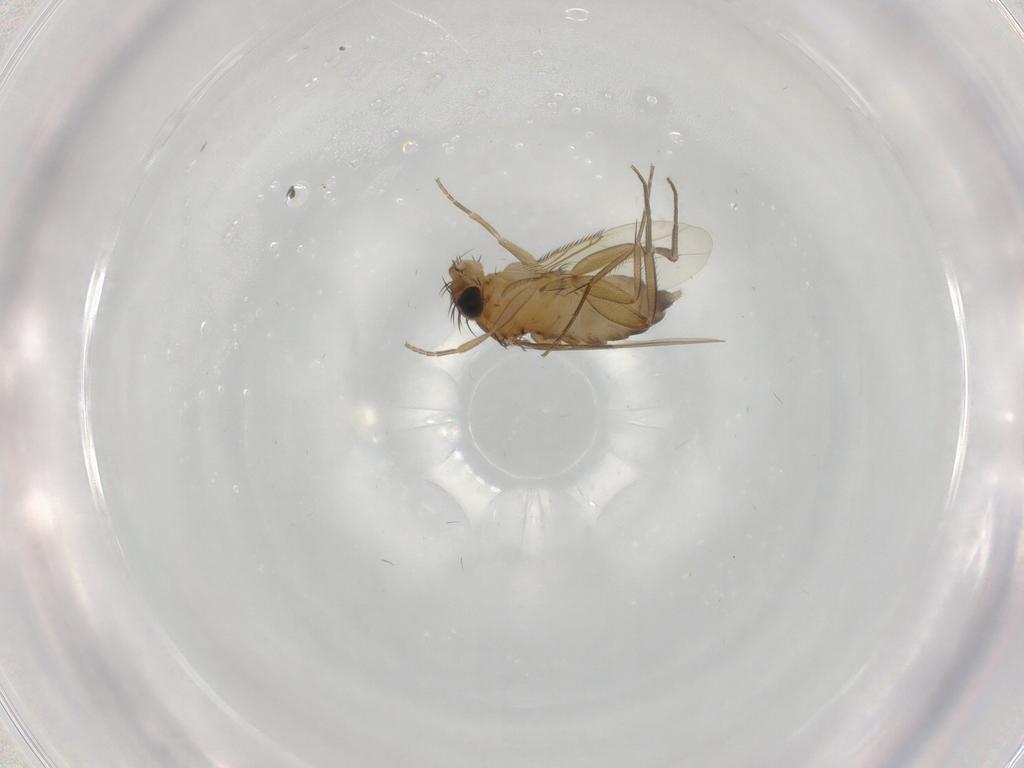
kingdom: Animalia
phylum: Arthropoda
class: Insecta
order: Diptera
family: Phoridae
